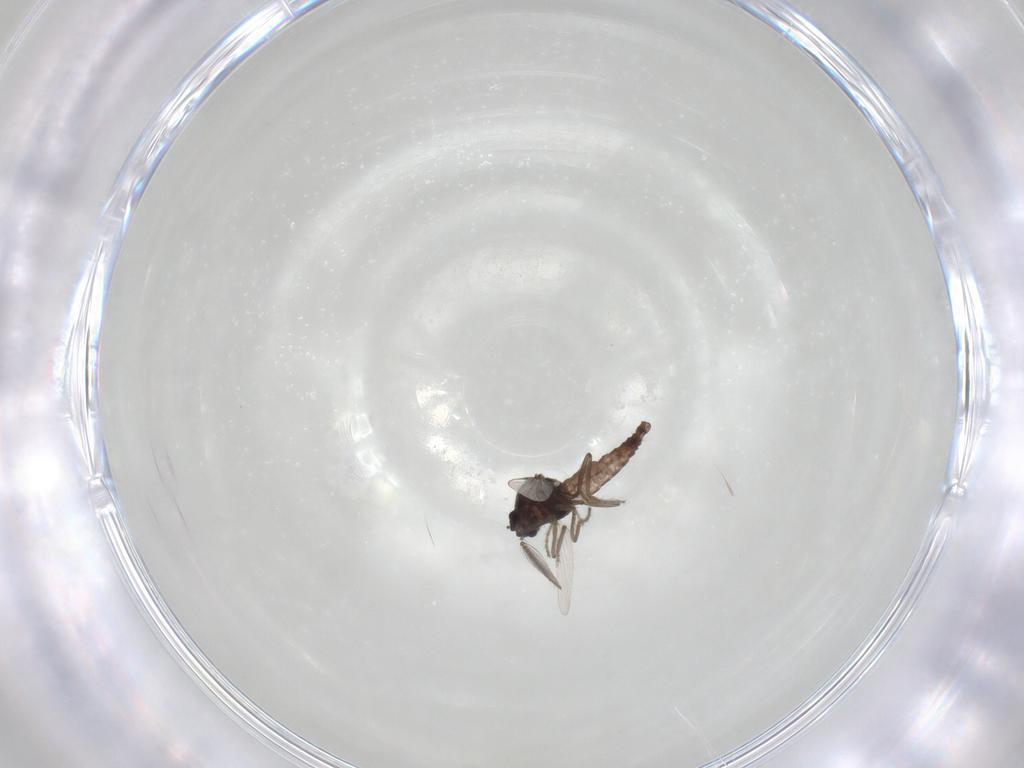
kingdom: Animalia
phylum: Arthropoda
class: Insecta
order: Diptera
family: Ceratopogonidae
